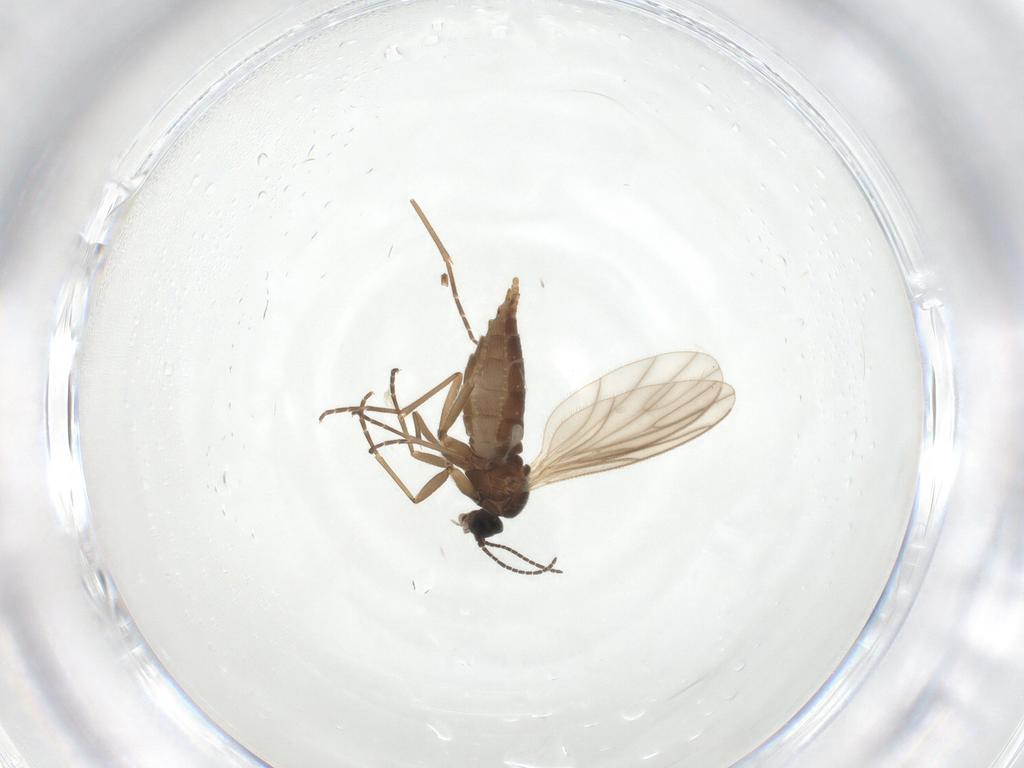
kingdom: Animalia
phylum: Arthropoda
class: Insecta
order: Diptera
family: Sciaridae
